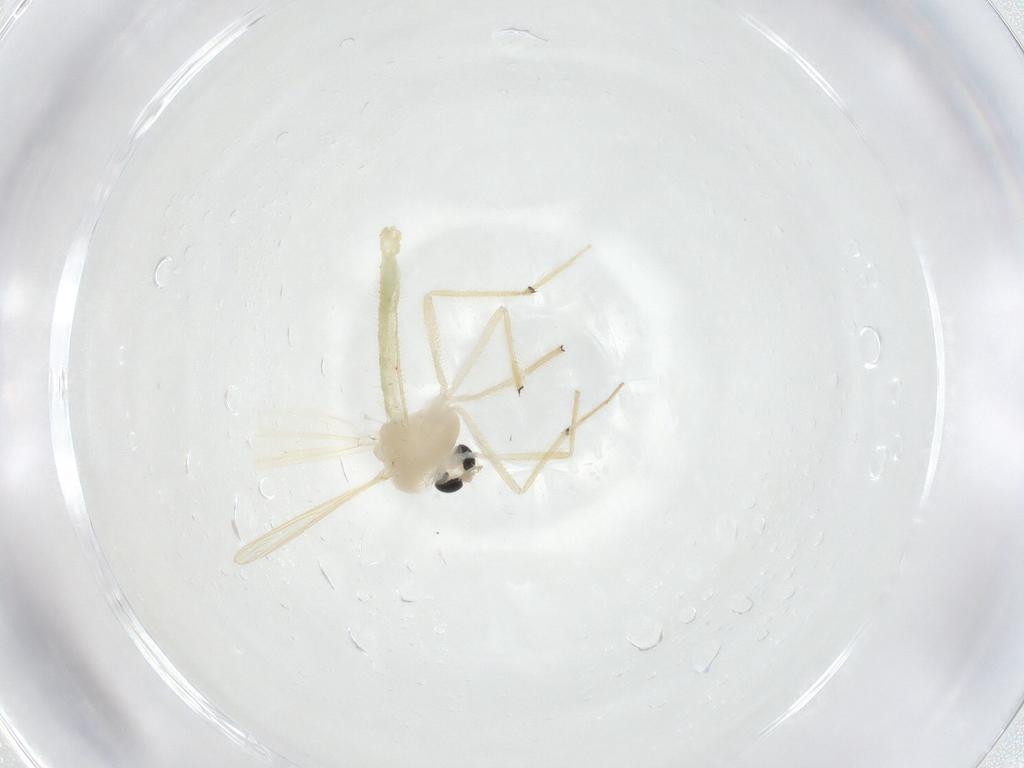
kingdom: Animalia
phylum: Arthropoda
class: Insecta
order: Diptera
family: Chironomidae
